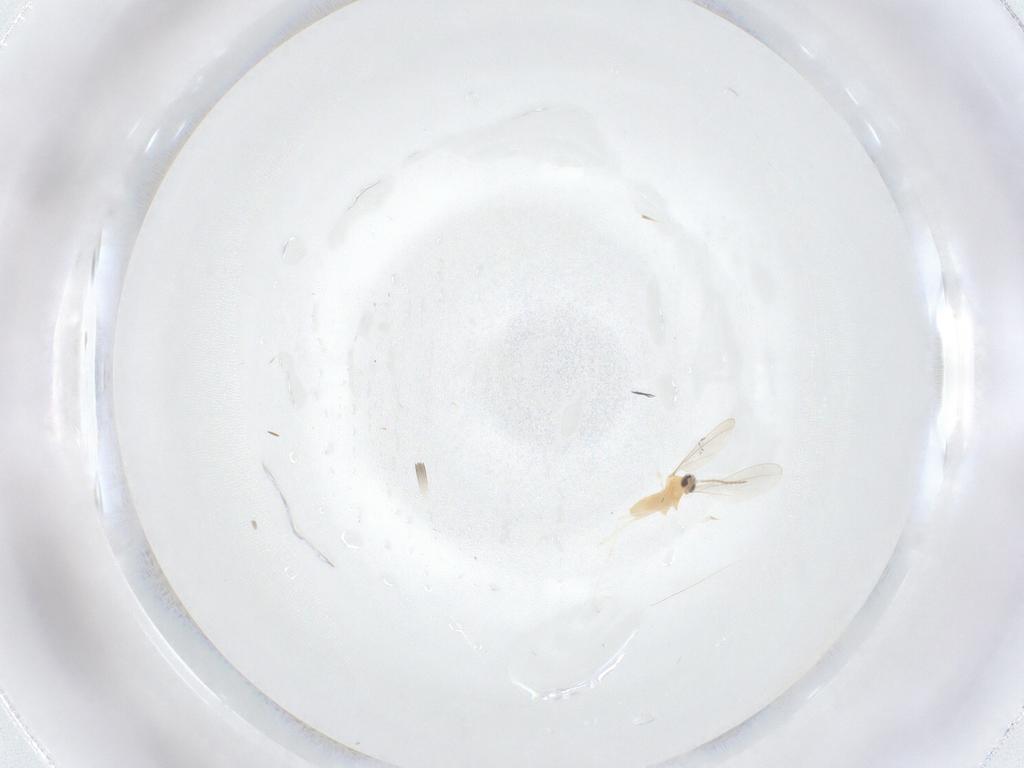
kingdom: Animalia
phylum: Arthropoda
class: Insecta
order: Diptera
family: Cecidomyiidae
